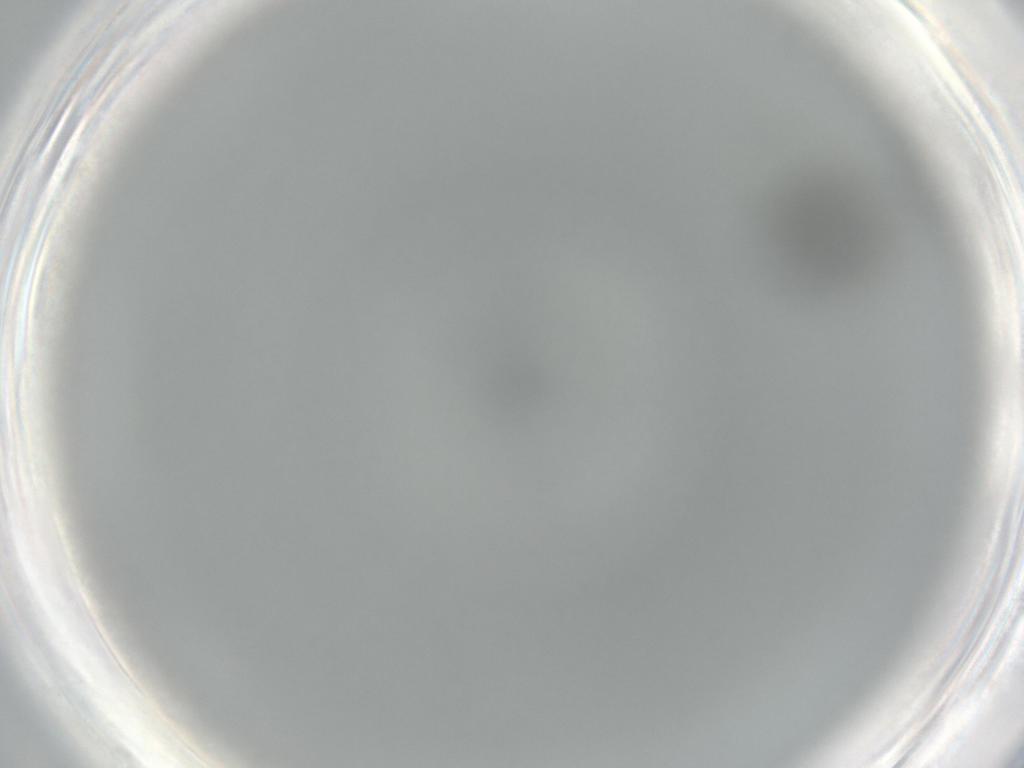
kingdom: Animalia
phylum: Arthropoda
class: Insecta
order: Diptera
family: Ceratopogonidae
